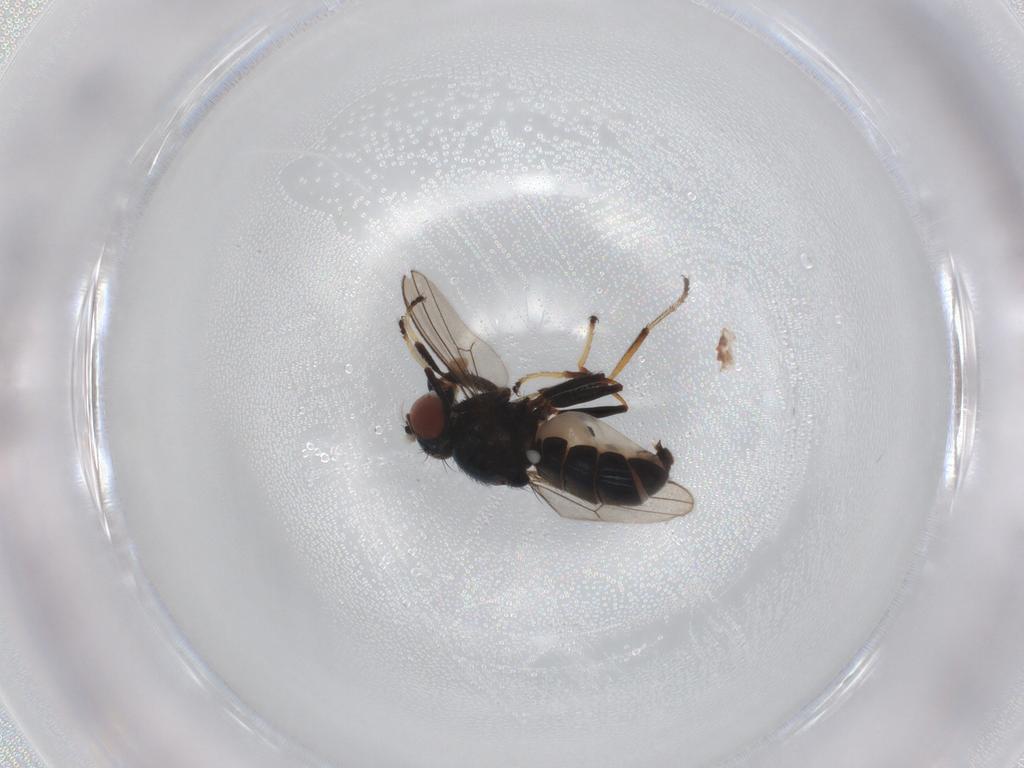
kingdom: Animalia
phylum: Arthropoda
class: Insecta
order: Diptera
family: Ephydridae
